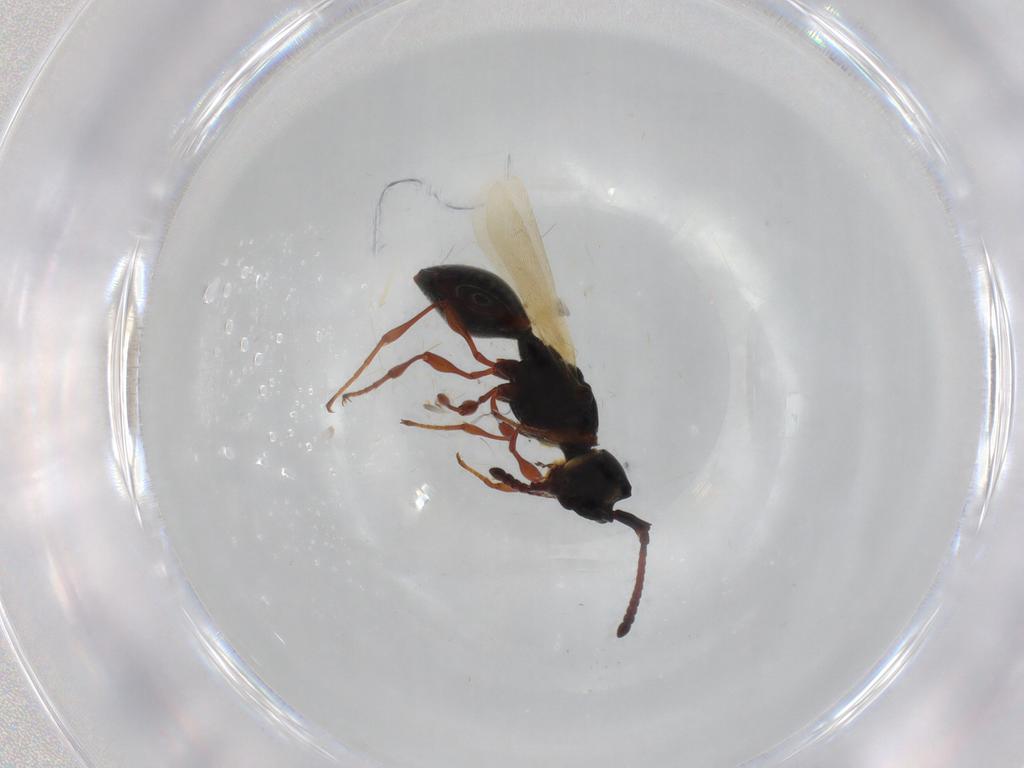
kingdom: Animalia
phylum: Arthropoda
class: Insecta
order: Hymenoptera
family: Diapriidae
